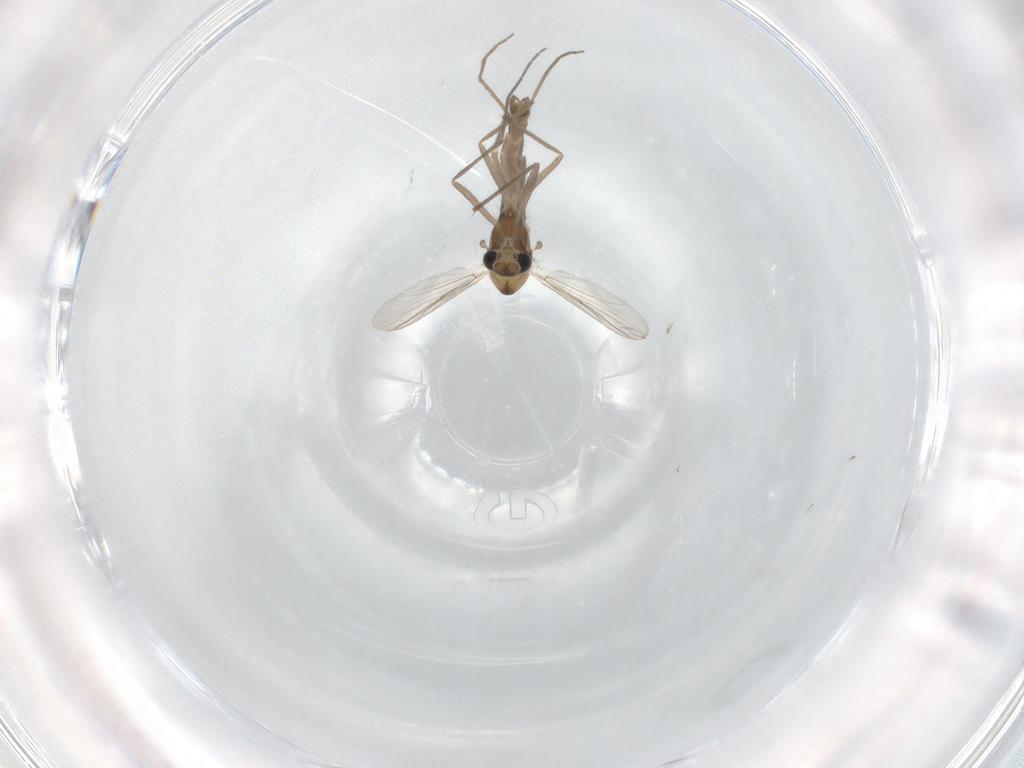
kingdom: Animalia
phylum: Arthropoda
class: Insecta
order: Diptera
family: Chironomidae
